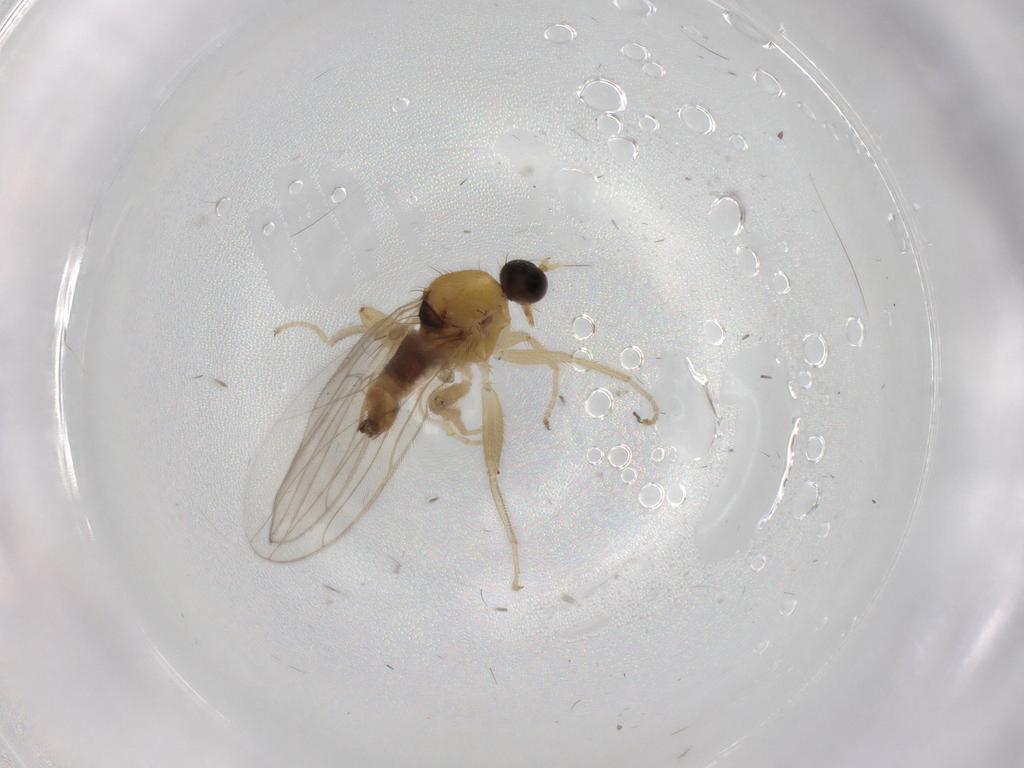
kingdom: Animalia
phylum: Arthropoda
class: Insecta
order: Diptera
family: Phoridae
